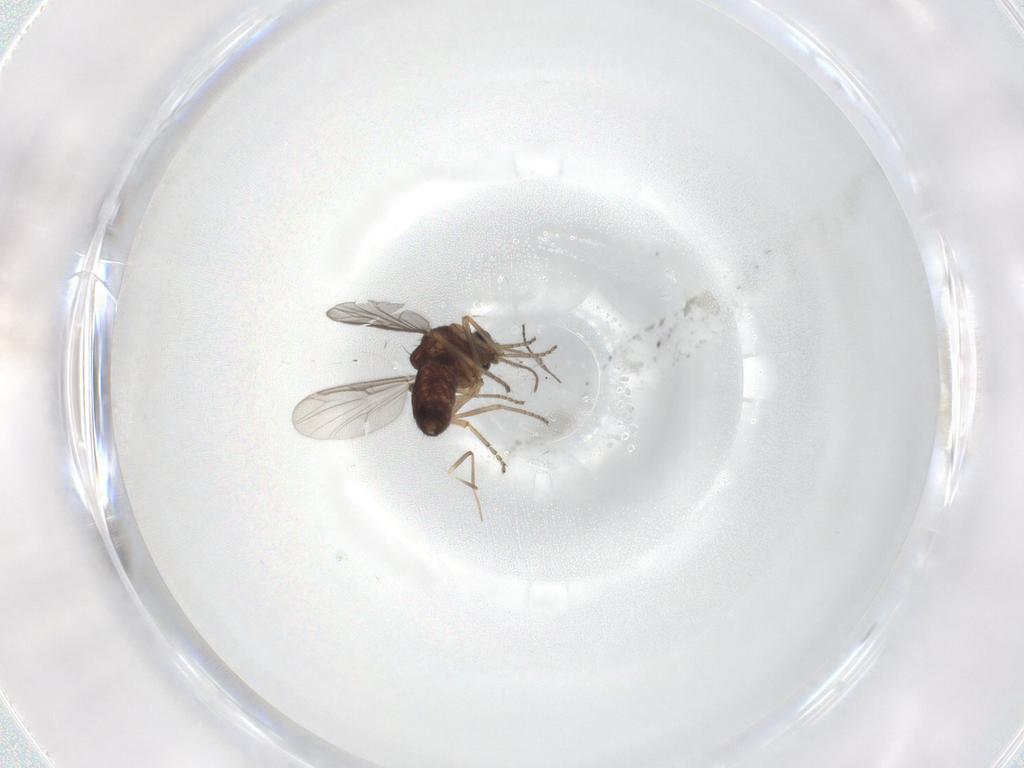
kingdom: Animalia
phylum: Arthropoda
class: Insecta
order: Diptera
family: Ceratopogonidae
